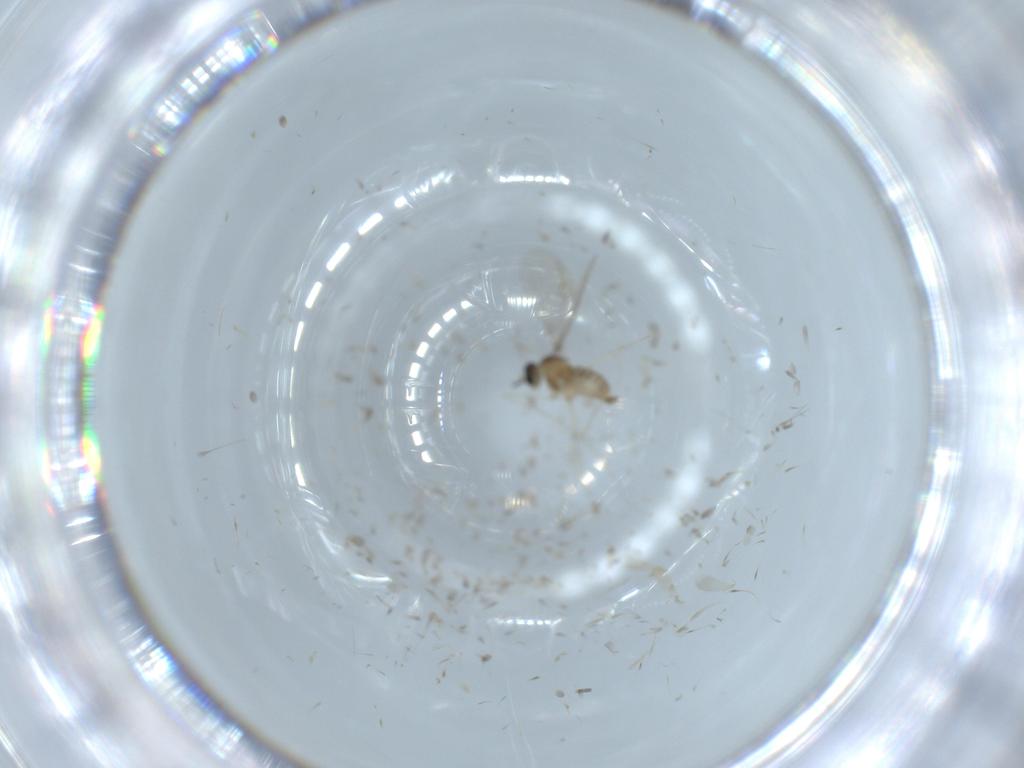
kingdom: Animalia
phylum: Arthropoda
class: Insecta
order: Diptera
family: Cecidomyiidae
